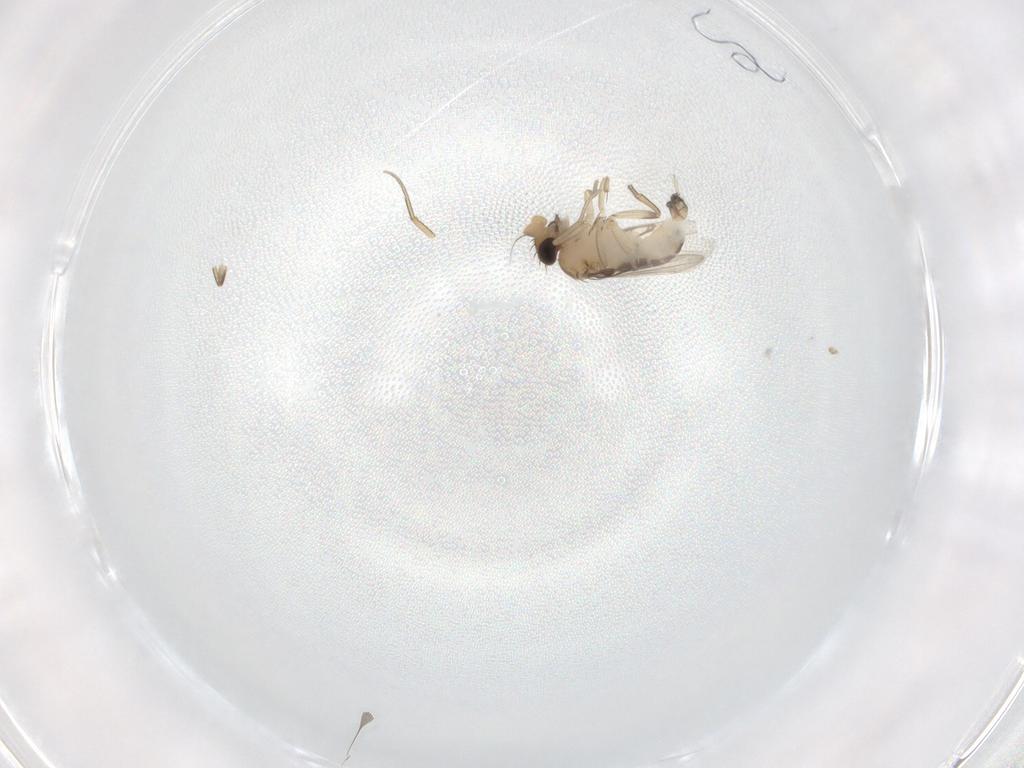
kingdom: Animalia
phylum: Arthropoda
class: Insecta
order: Diptera
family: Phoridae
